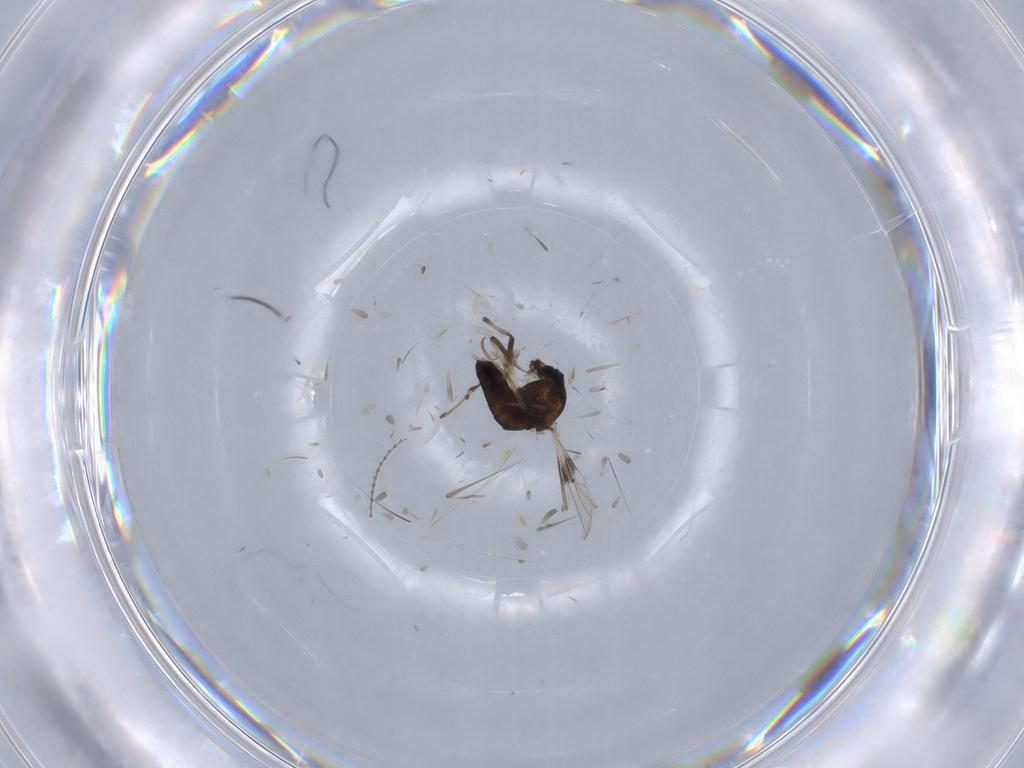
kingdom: Animalia
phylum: Arthropoda
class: Insecta
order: Diptera
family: Chironomidae
